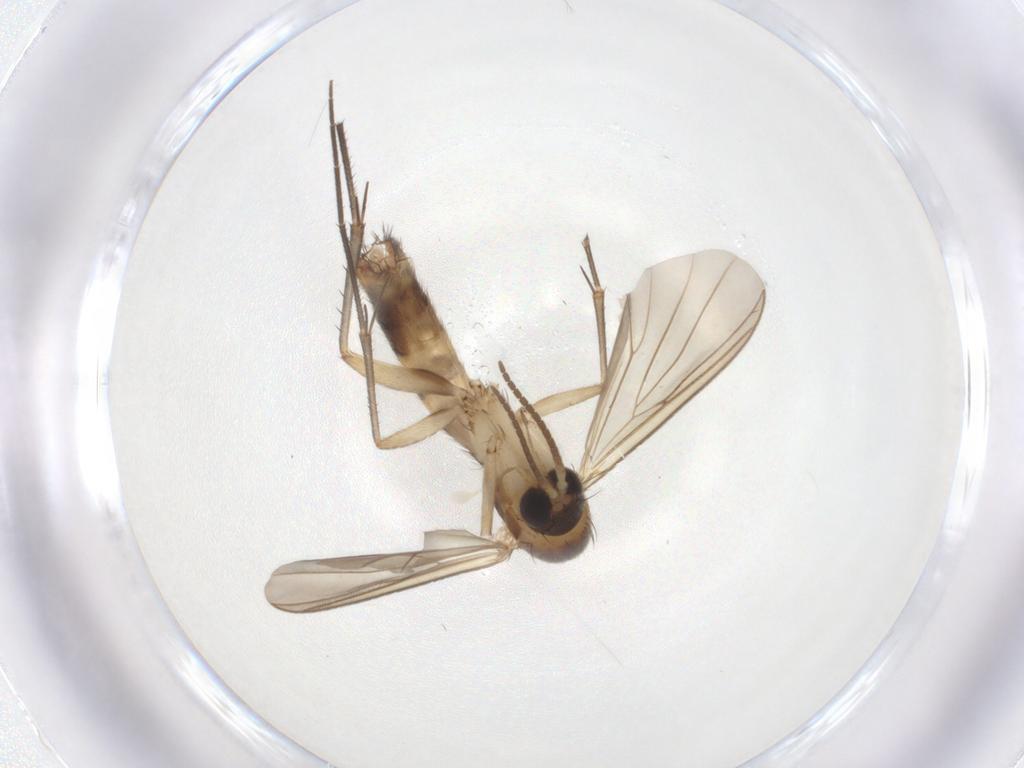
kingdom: Animalia
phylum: Arthropoda
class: Insecta
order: Diptera
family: Mycetophilidae
